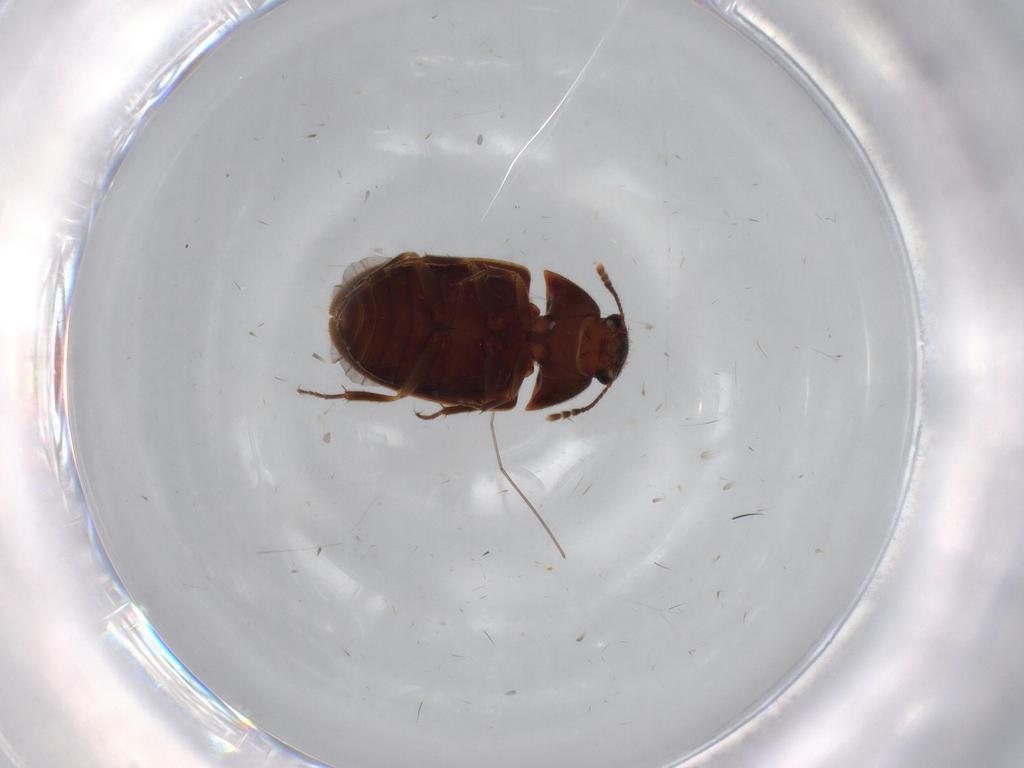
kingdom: Animalia
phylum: Arthropoda
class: Insecta
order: Coleoptera
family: Mycetophagidae
